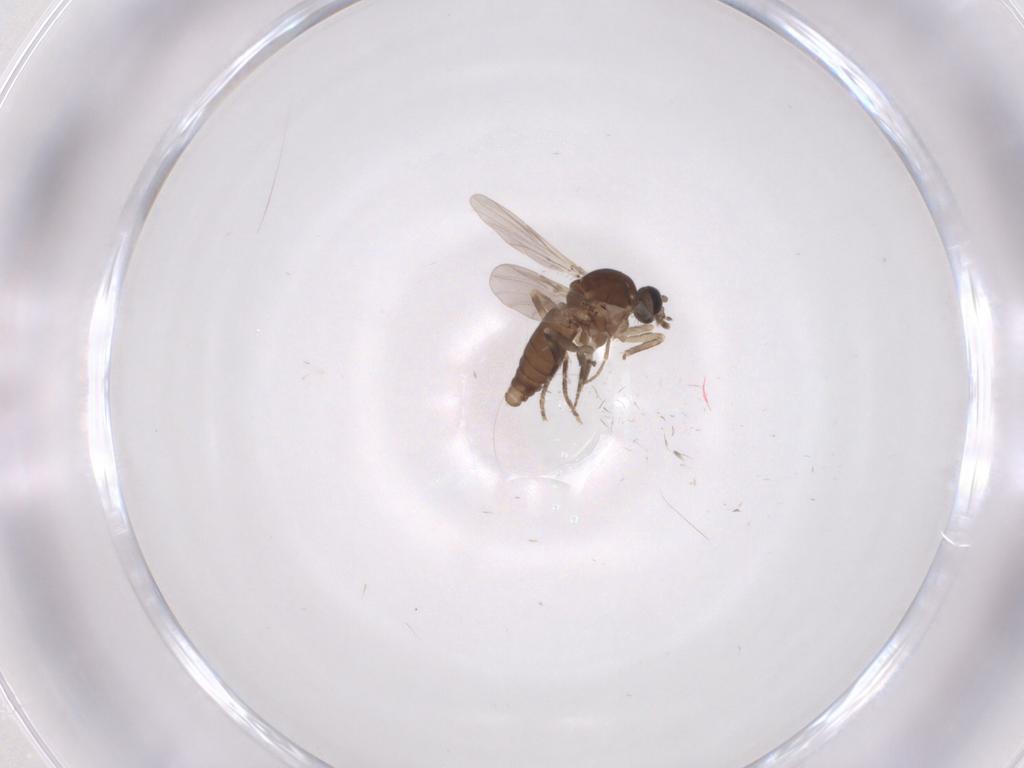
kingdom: Animalia
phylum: Arthropoda
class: Insecta
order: Diptera
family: Ceratopogonidae
